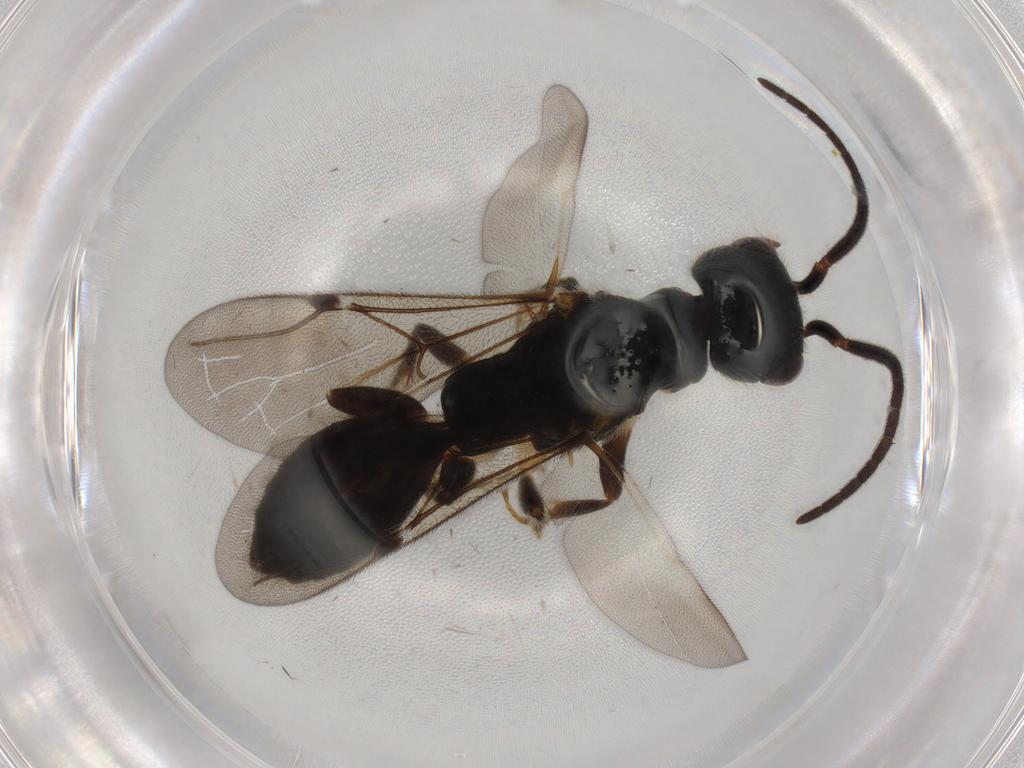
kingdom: Animalia
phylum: Arthropoda
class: Insecta
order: Hymenoptera
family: Bethylidae
